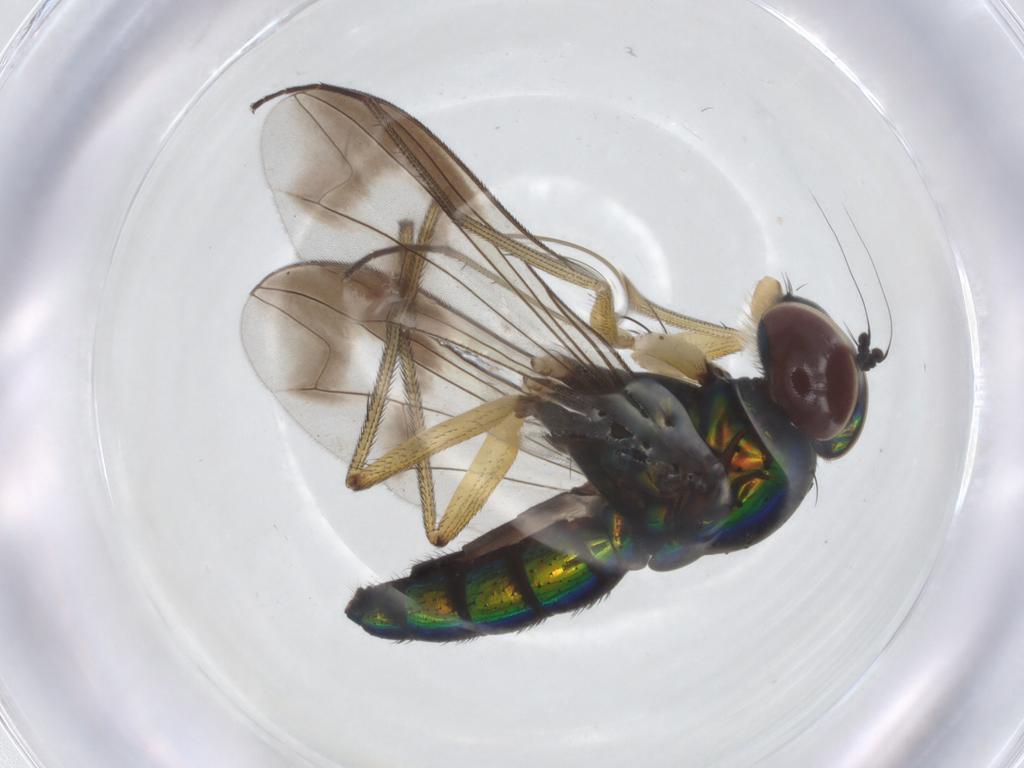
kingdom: Animalia
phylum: Arthropoda
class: Insecta
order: Diptera
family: Dolichopodidae
